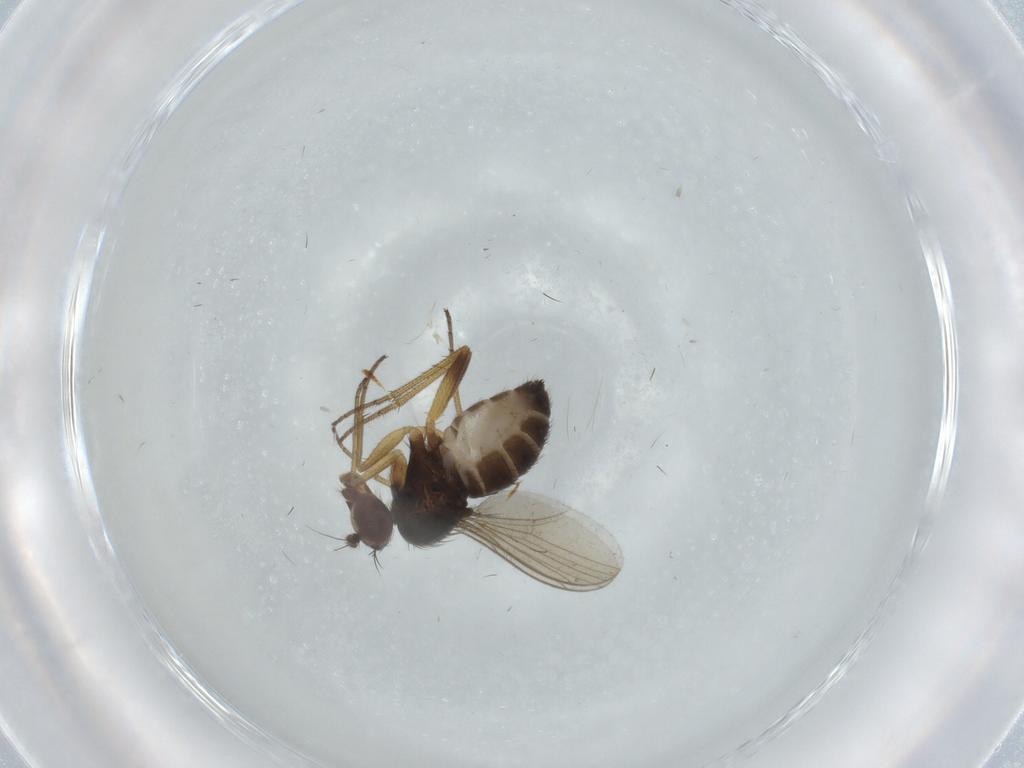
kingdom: Animalia
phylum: Arthropoda
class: Insecta
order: Diptera
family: Dolichopodidae
